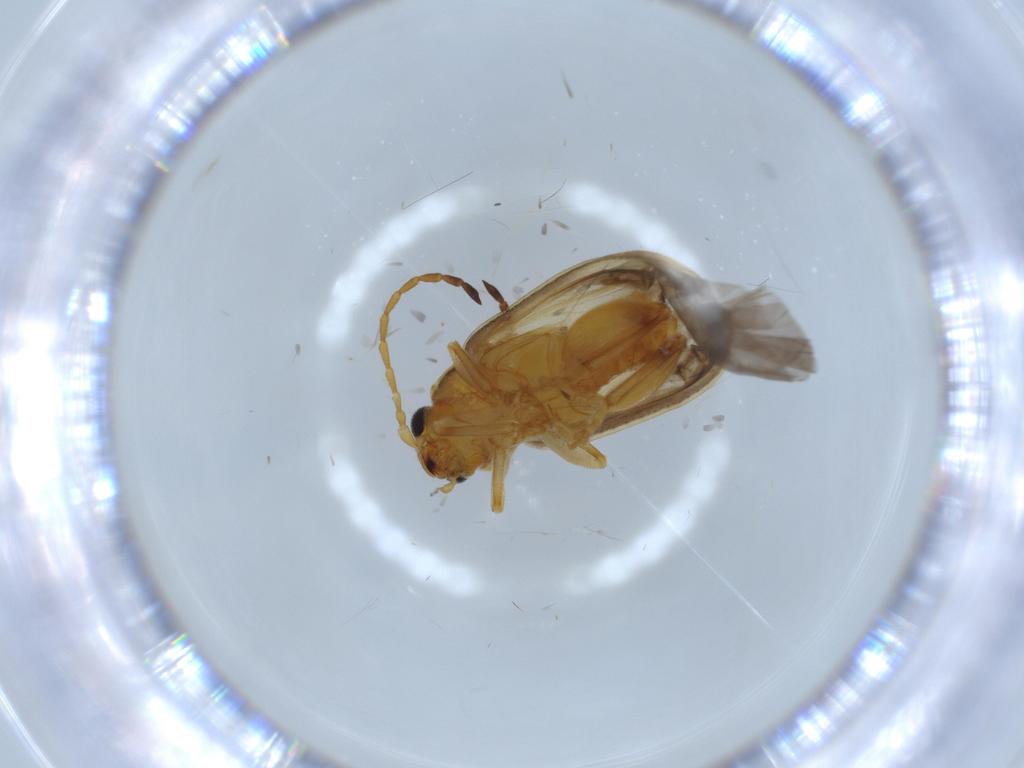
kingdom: Animalia
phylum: Arthropoda
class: Insecta
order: Coleoptera
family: Chrysomelidae
